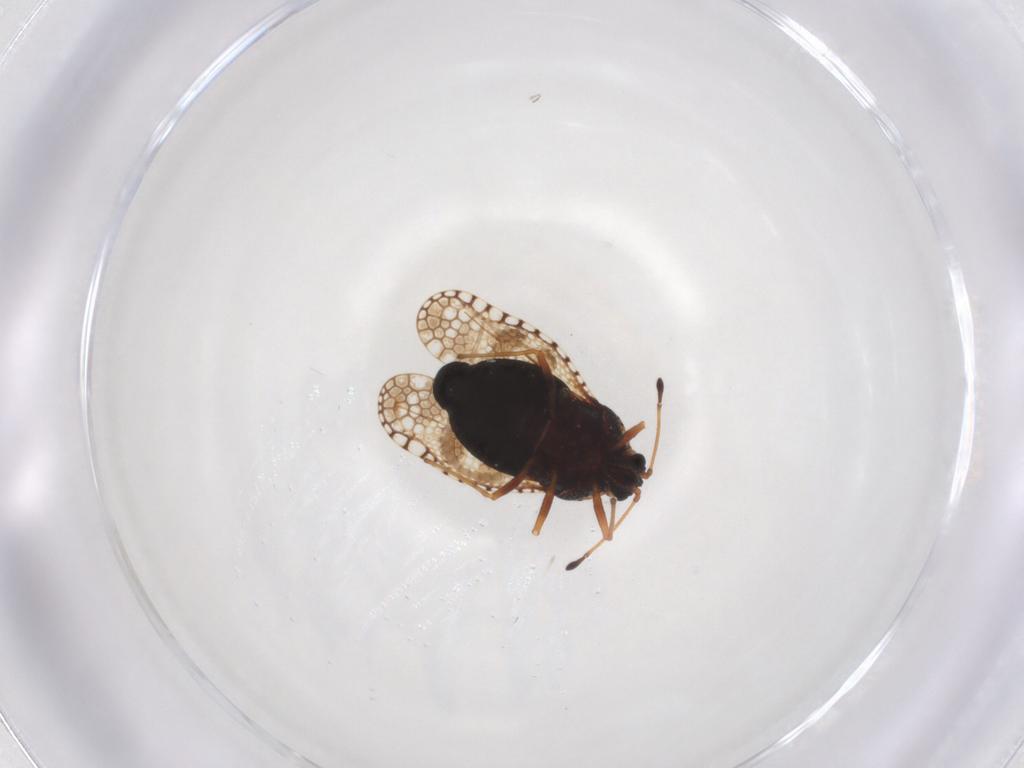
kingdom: Animalia
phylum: Arthropoda
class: Insecta
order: Hemiptera
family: Tingidae
